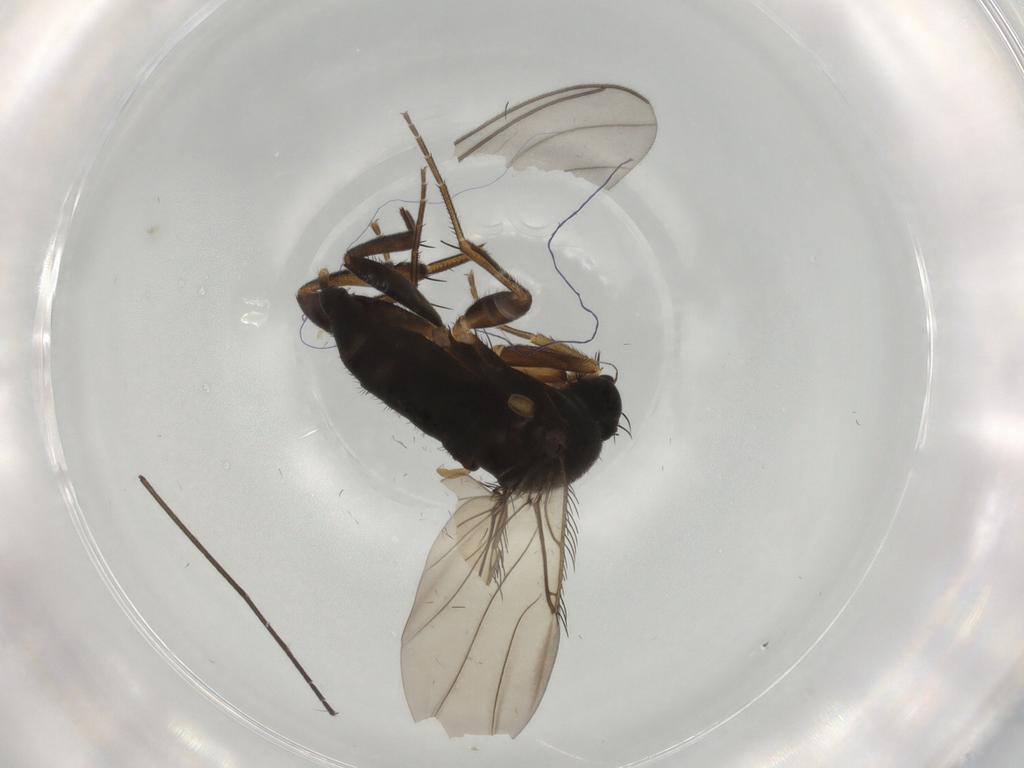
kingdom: Animalia
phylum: Arthropoda
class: Insecta
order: Diptera
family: Phoridae
